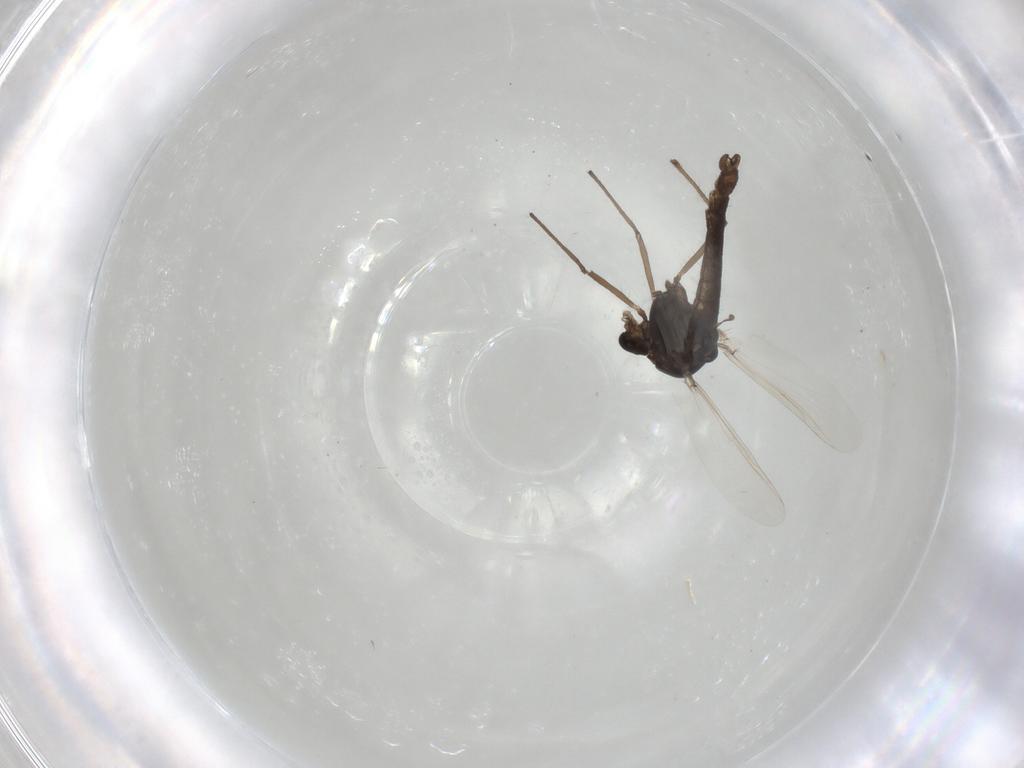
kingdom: Animalia
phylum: Arthropoda
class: Insecta
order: Diptera
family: Chironomidae
